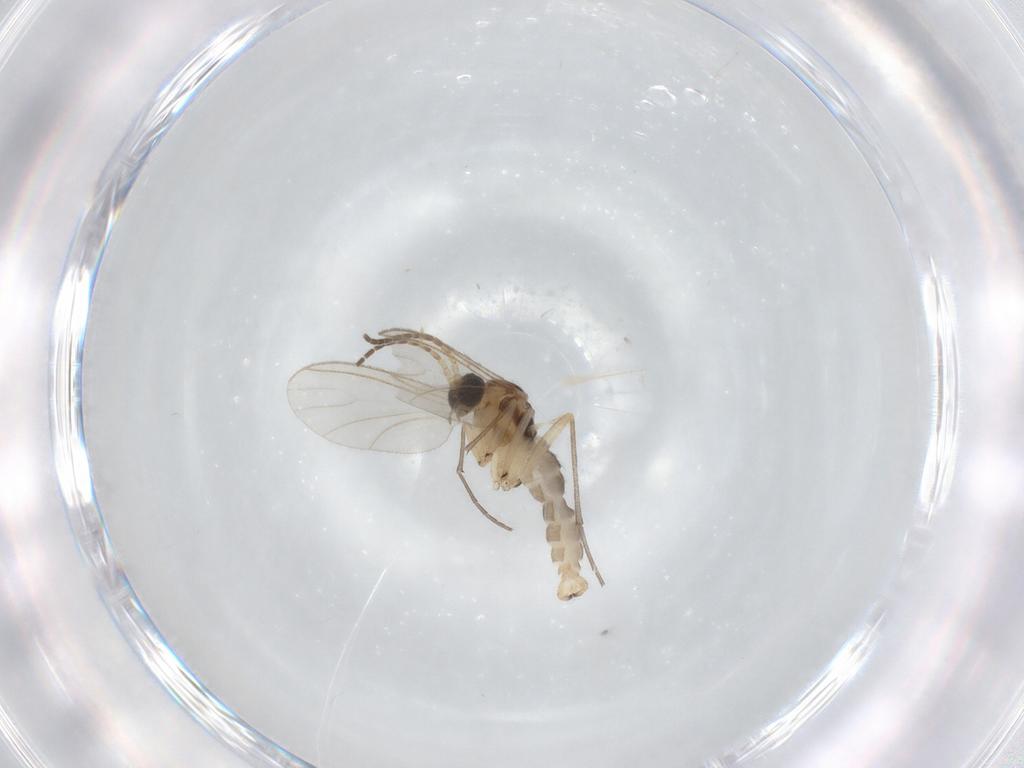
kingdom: Animalia
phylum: Arthropoda
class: Insecta
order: Diptera
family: Sciaridae
